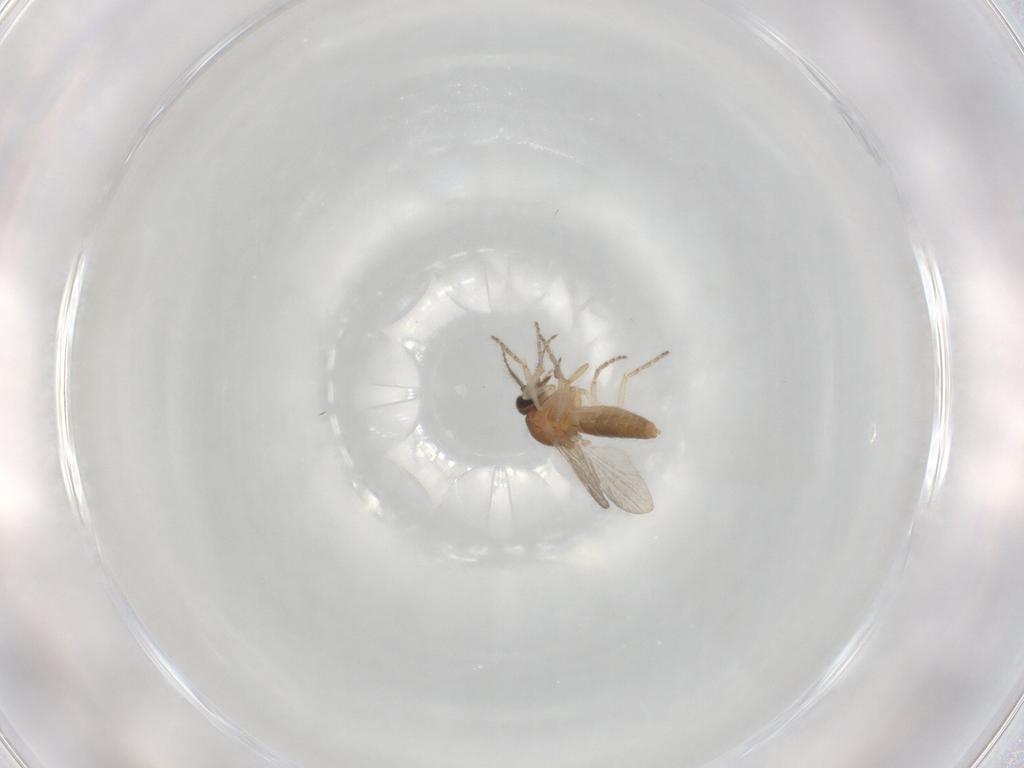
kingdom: Animalia
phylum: Arthropoda
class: Insecta
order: Diptera
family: Ceratopogonidae
